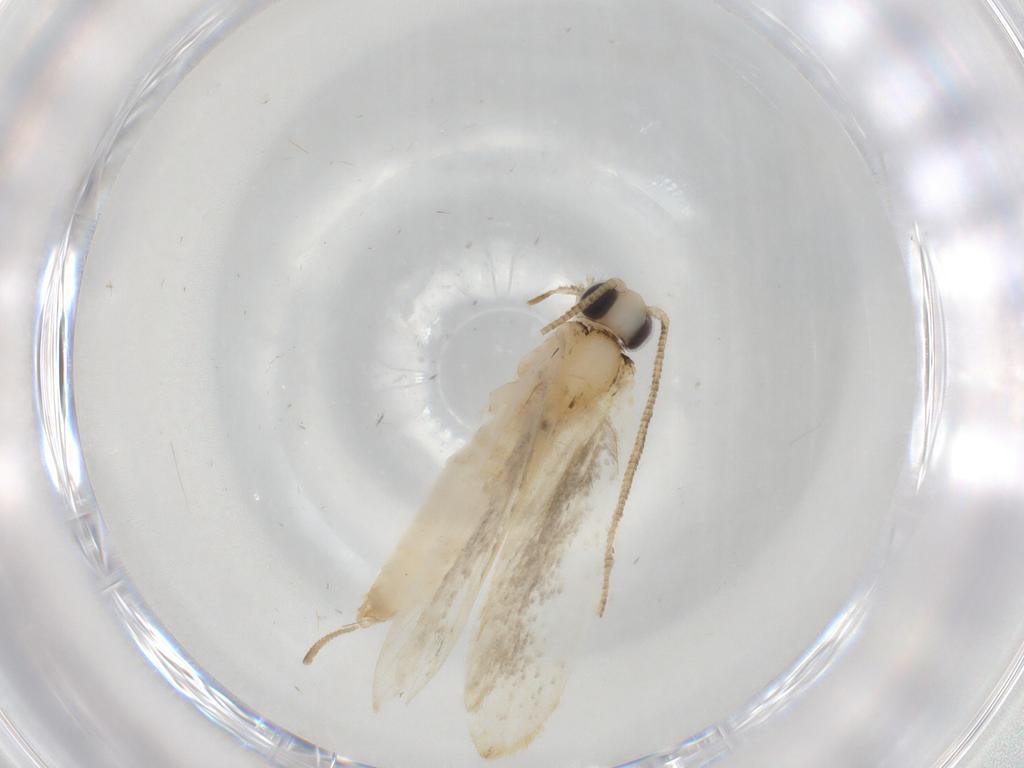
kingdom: Animalia
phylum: Arthropoda
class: Insecta
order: Lepidoptera
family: Tineidae
